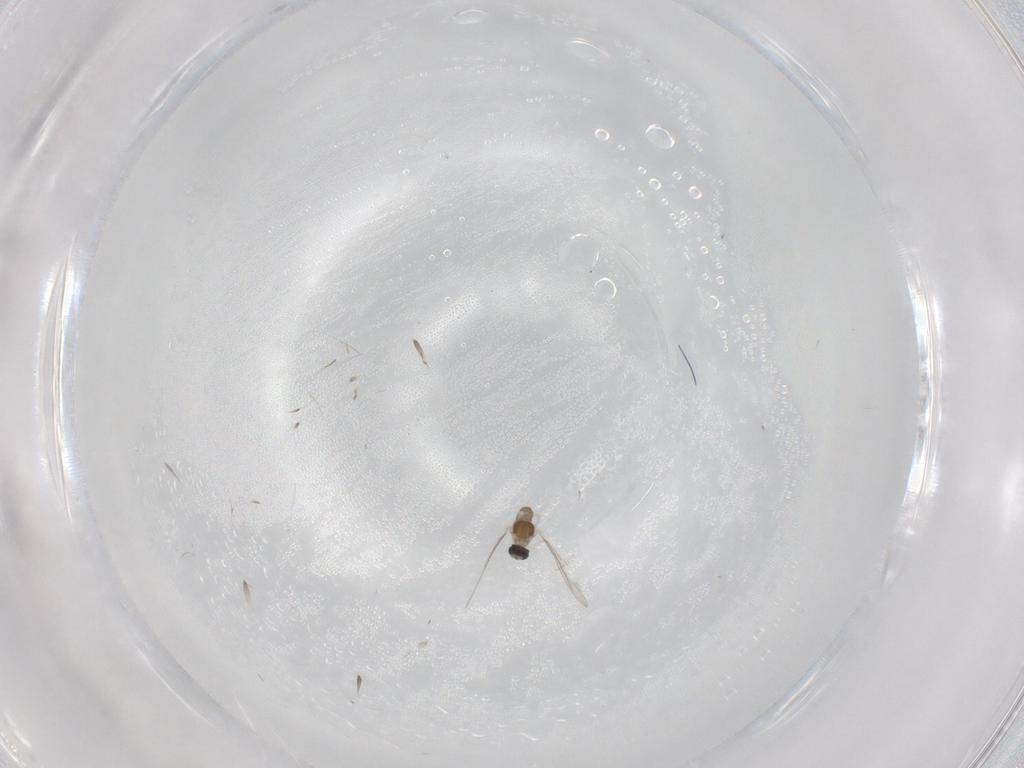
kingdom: Animalia
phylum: Arthropoda
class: Insecta
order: Diptera
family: Cecidomyiidae
